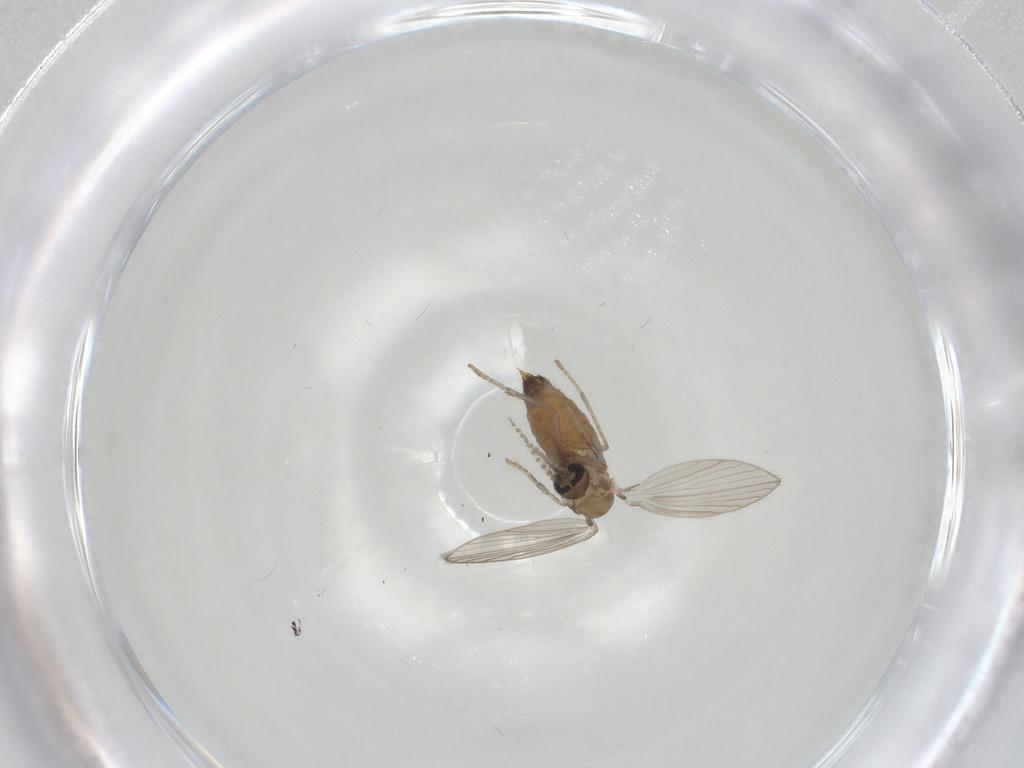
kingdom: Animalia
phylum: Arthropoda
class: Insecta
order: Diptera
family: Psychodidae
